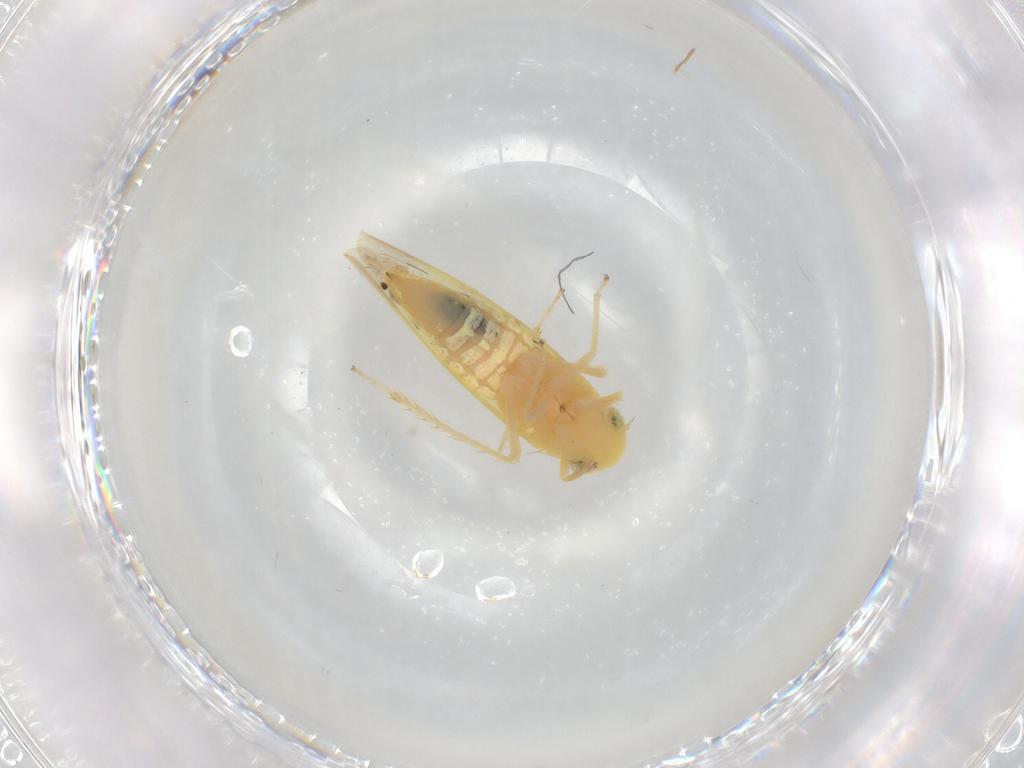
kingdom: Animalia
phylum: Arthropoda
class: Insecta
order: Hemiptera
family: Cicadellidae
